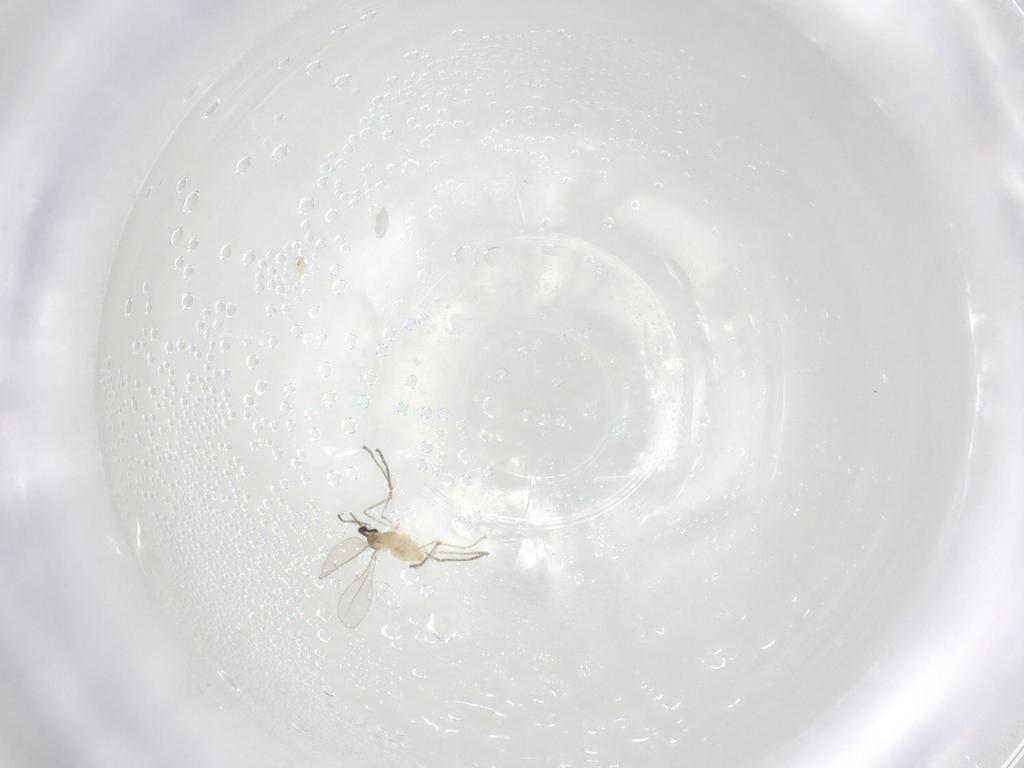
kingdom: Animalia
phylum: Arthropoda
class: Insecta
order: Diptera
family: Cecidomyiidae
